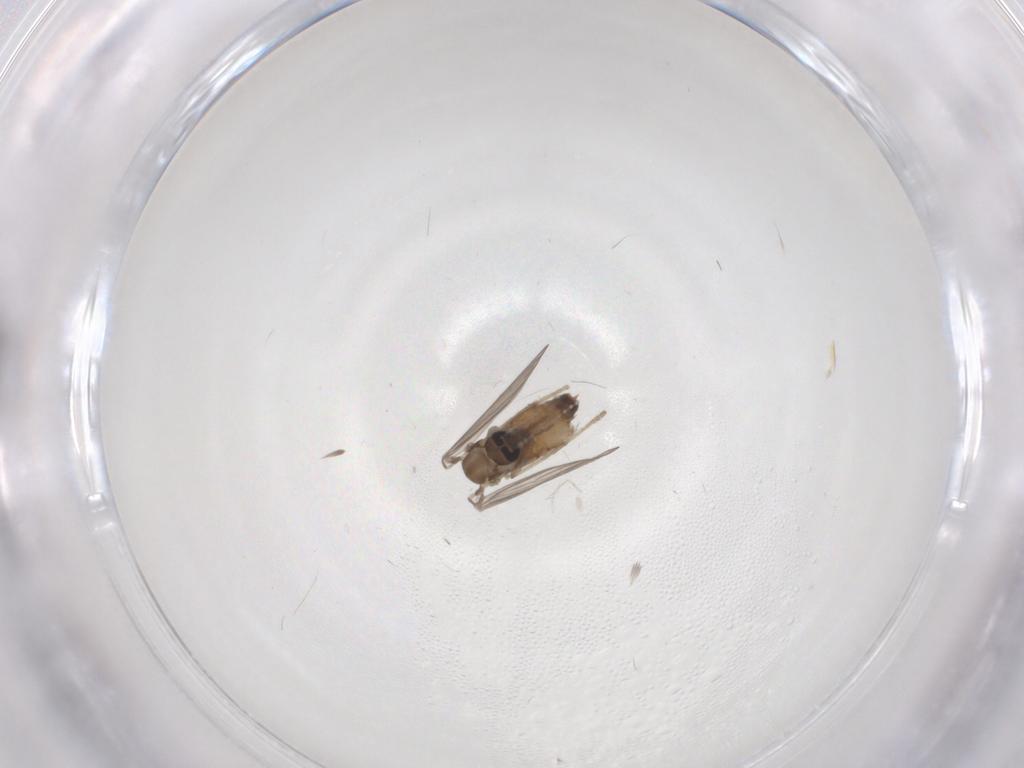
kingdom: Animalia
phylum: Arthropoda
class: Insecta
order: Diptera
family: Psychodidae
